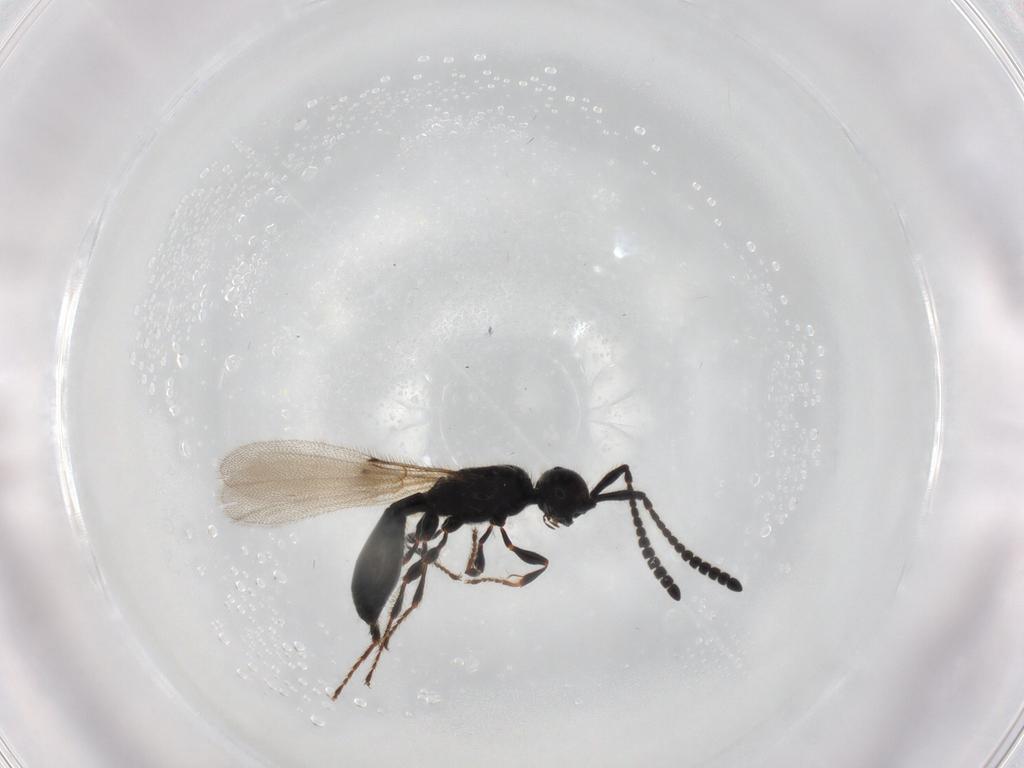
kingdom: Animalia
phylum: Arthropoda
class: Insecta
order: Hymenoptera
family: Diapriidae
